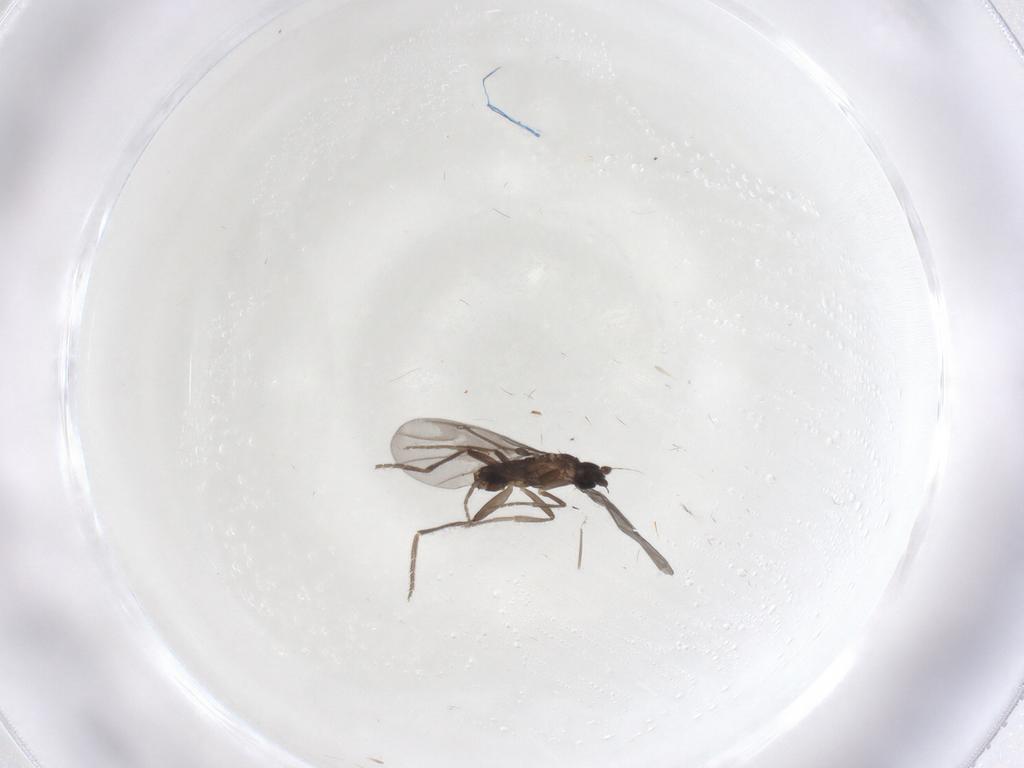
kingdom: Animalia
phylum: Arthropoda
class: Insecta
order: Diptera
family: Phoridae
